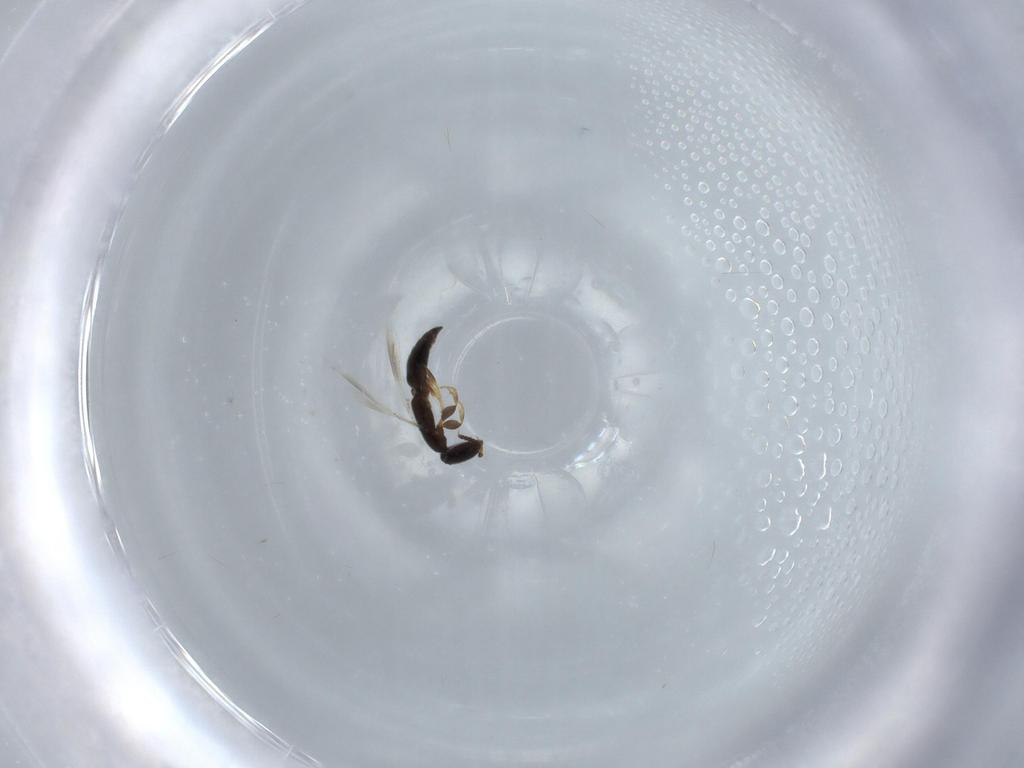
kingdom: Animalia
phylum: Arthropoda
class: Insecta
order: Hymenoptera
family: Bethylidae
